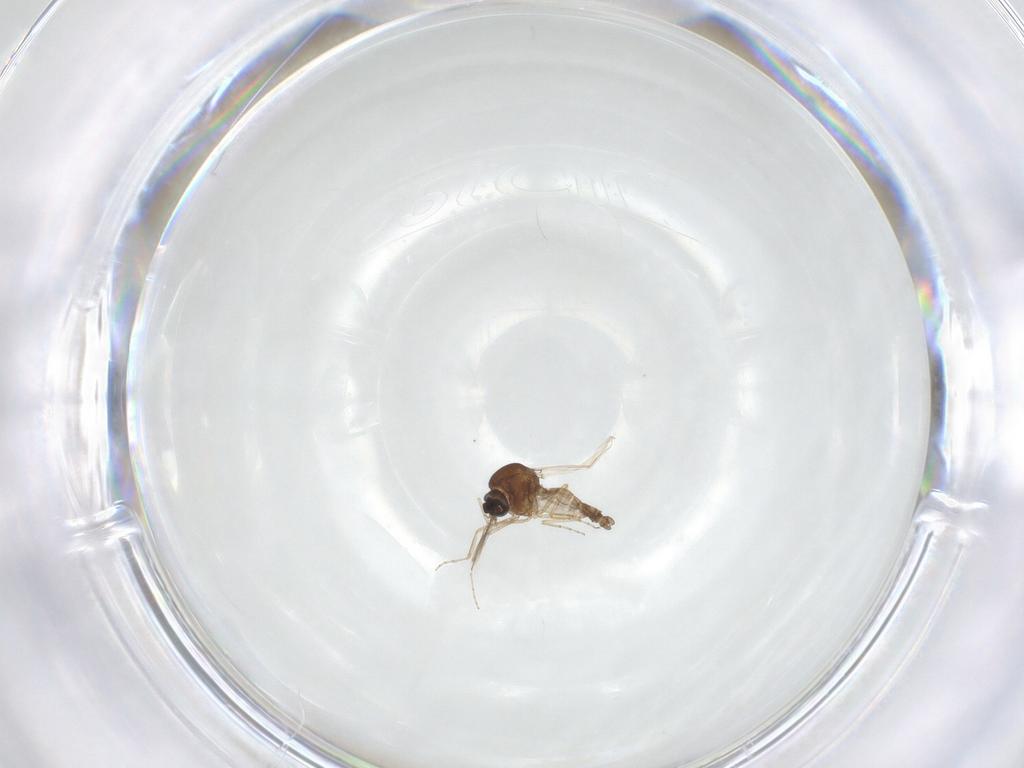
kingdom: Animalia
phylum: Arthropoda
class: Insecta
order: Diptera
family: Ceratopogonidae
